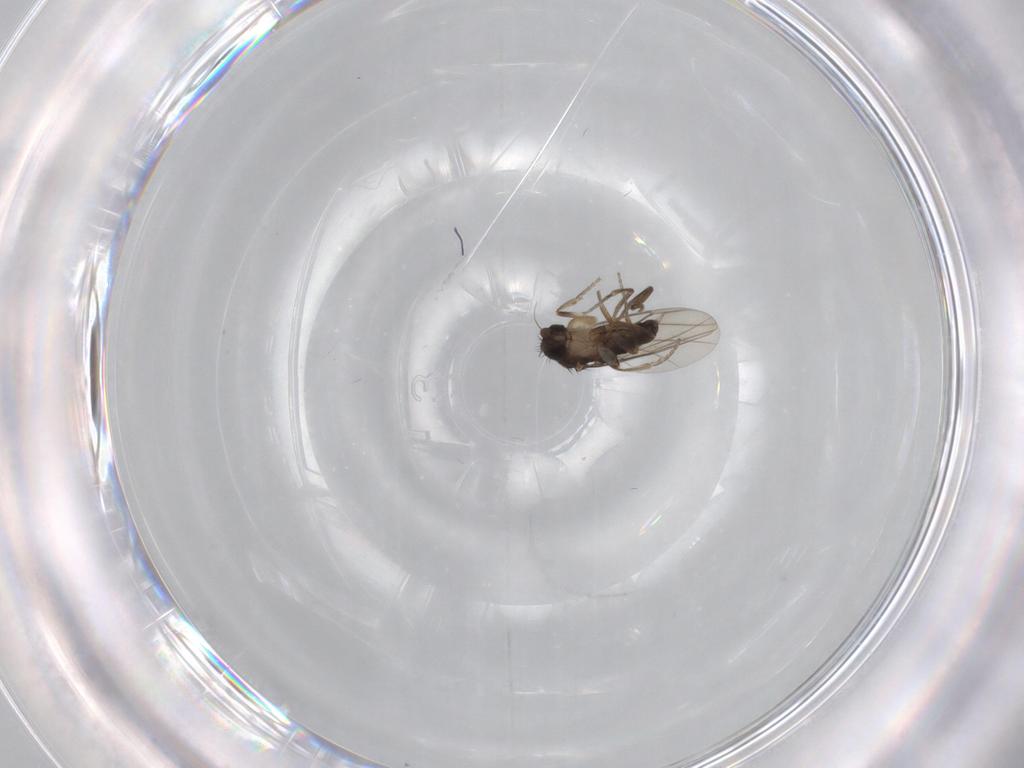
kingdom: Animalia
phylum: Arthropoda
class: Insecta
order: Diptera
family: Phoridae
